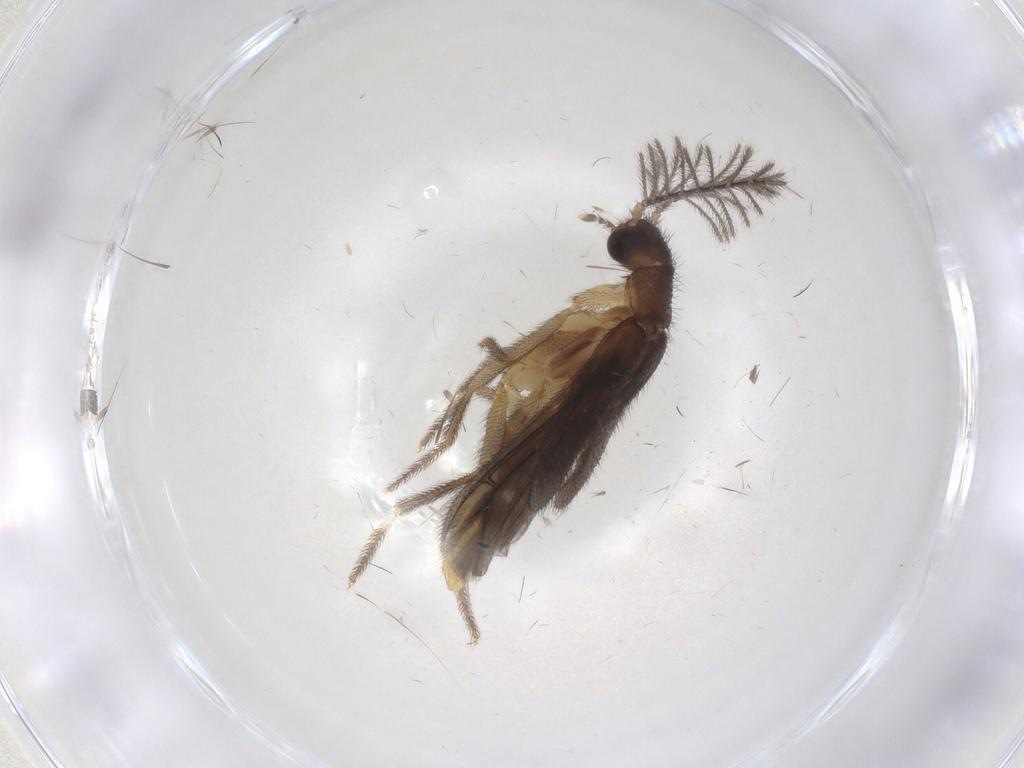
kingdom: Animalia
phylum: Arthropoda
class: Insecta
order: Coleoptera
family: Phengodidae
